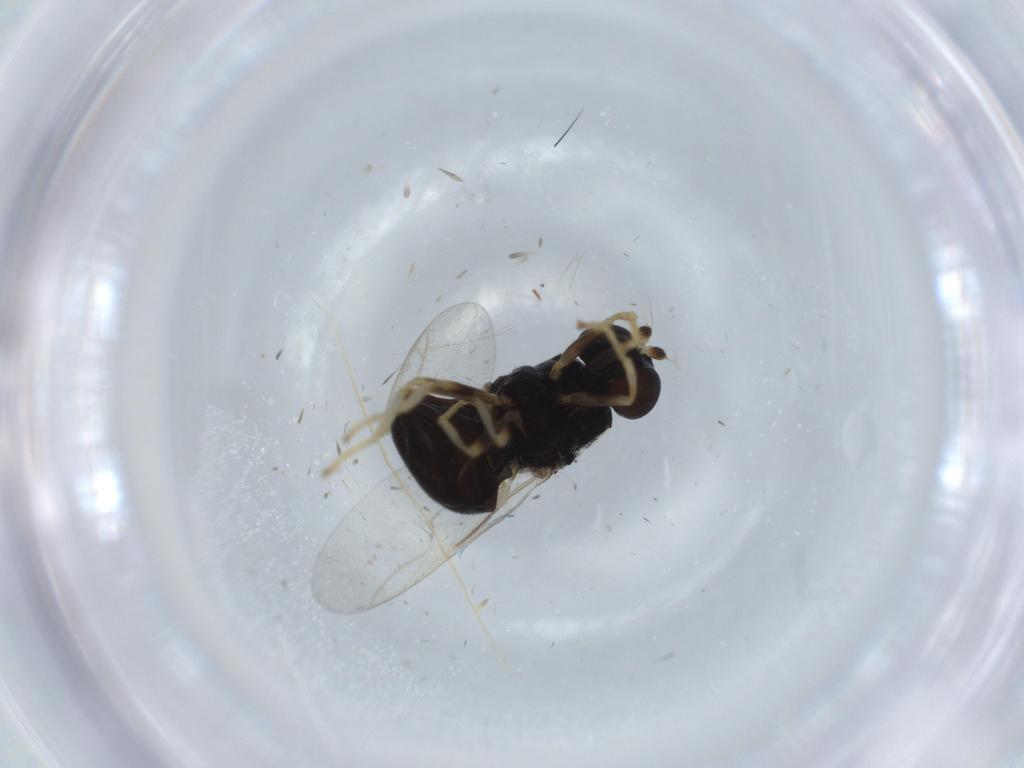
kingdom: Animalia
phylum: Arthropoda
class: Insecta
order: Diptera
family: Stratiomyidae
